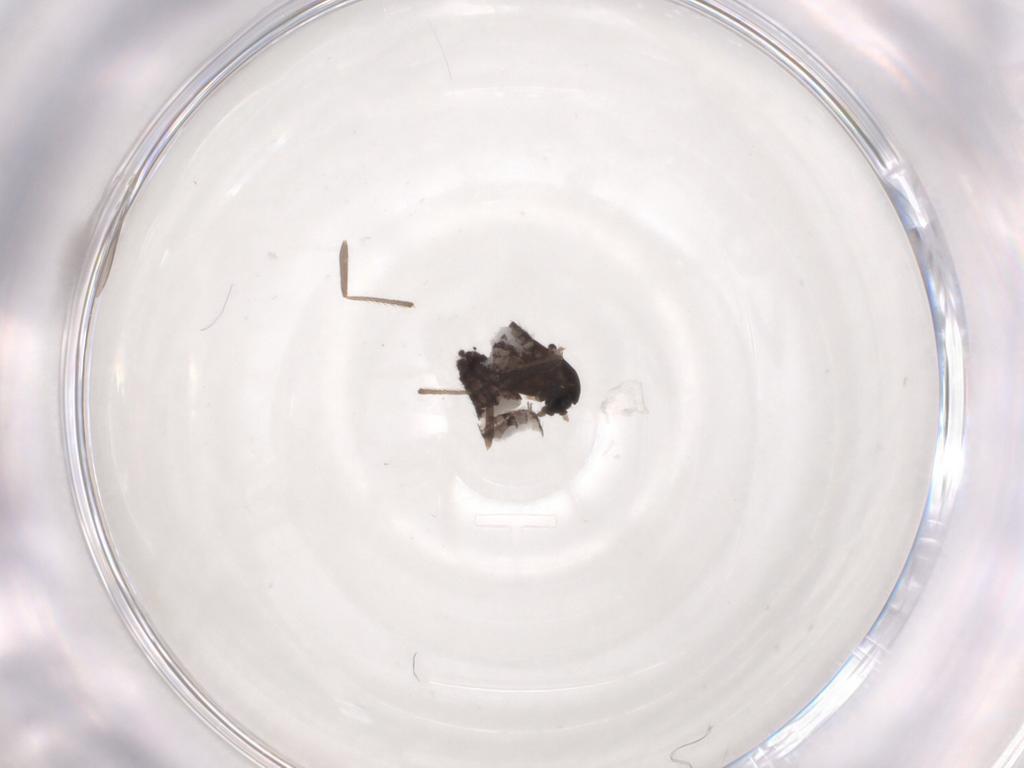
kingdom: Animalia
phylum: Arthropoda
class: Insecta
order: Diptera
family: Chironomidae
